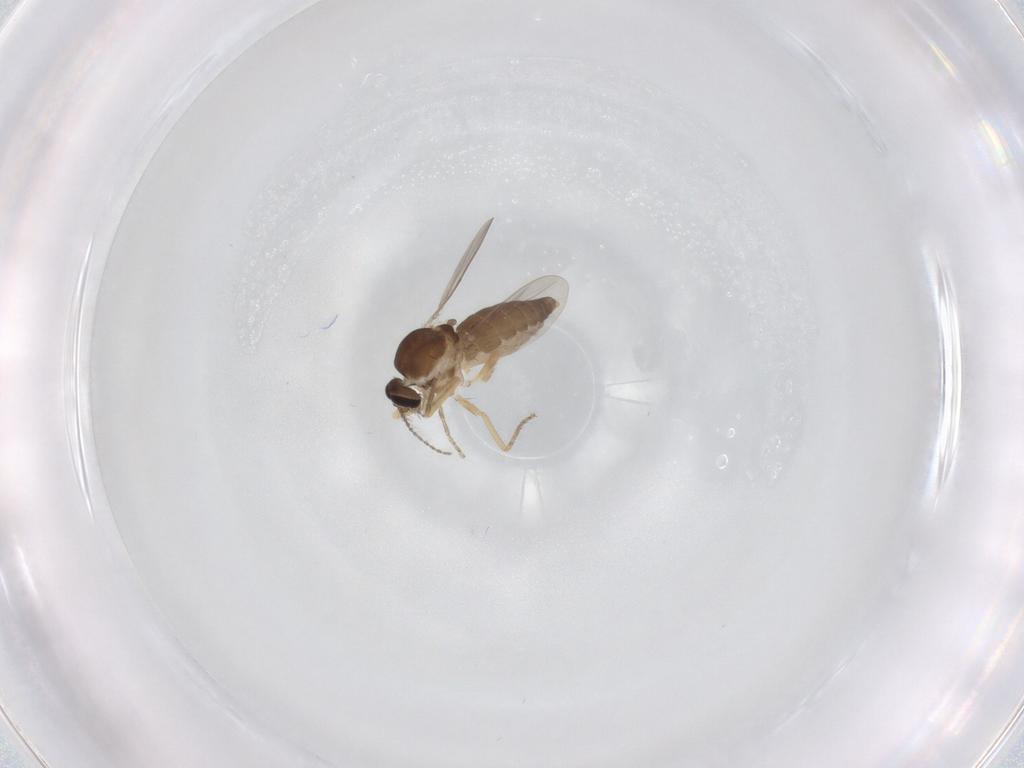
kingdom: Animalia
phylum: Arthropoda
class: Insecta
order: Diptera
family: Ceratopogonidae
